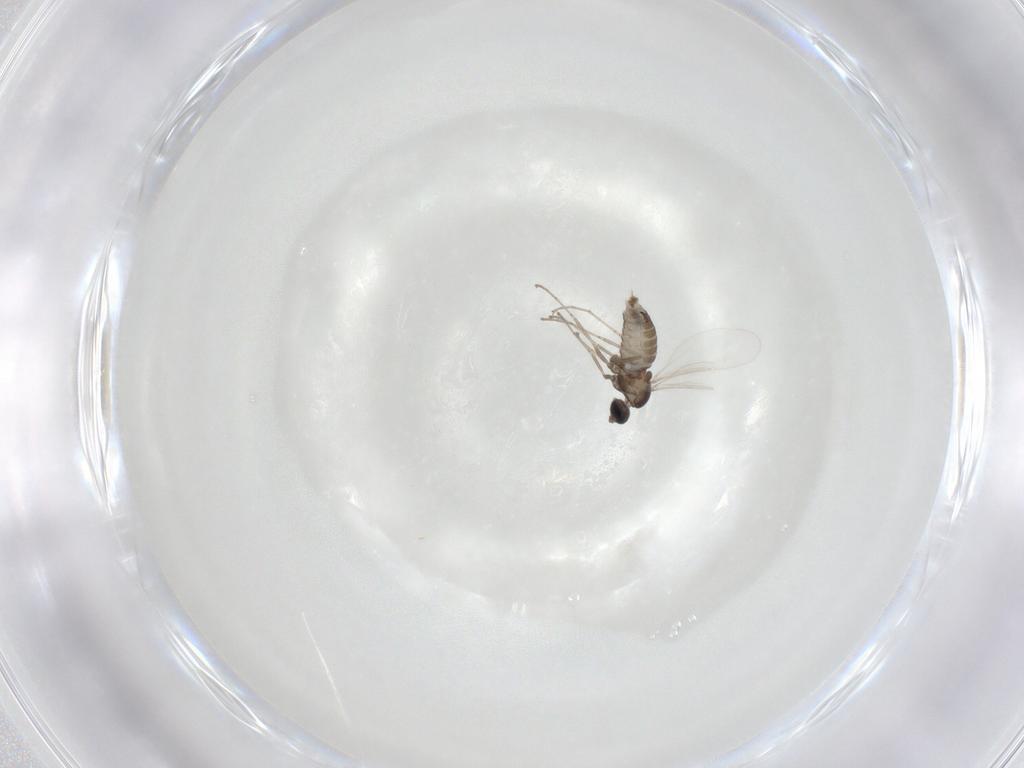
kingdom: Animalia
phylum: Arthropoda
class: Insecta
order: Diptera
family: Cecidomyiidae
